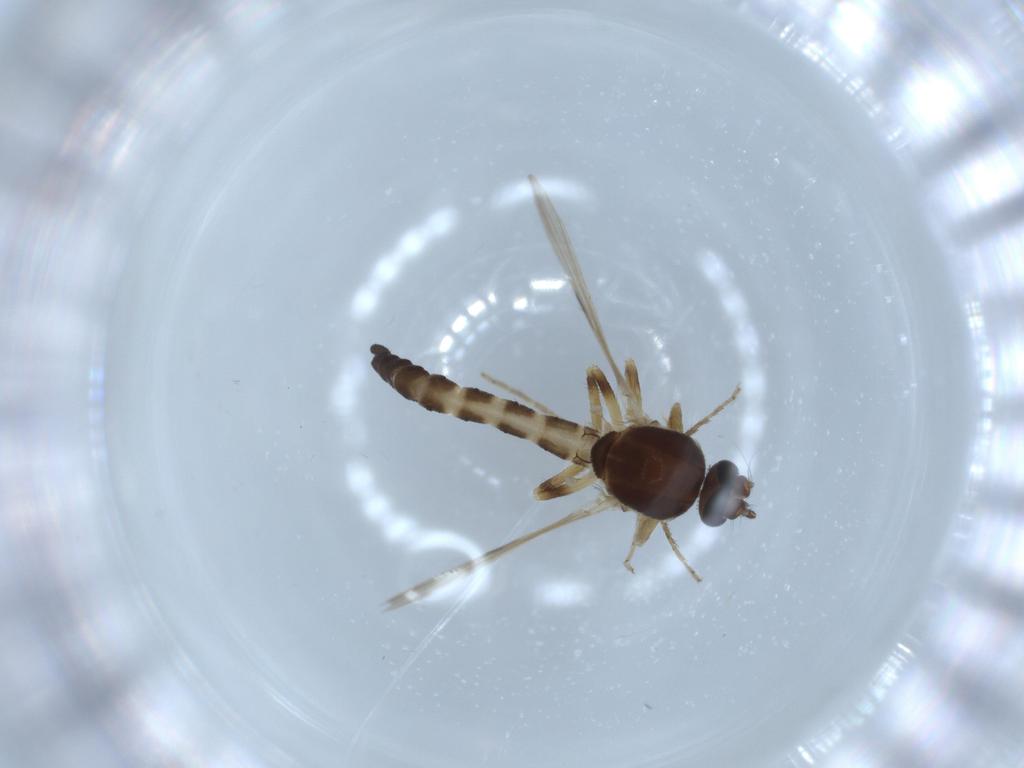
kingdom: Animalia
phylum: Arthropoda
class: Insecta
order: Diptera
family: Ceratopogonidae
